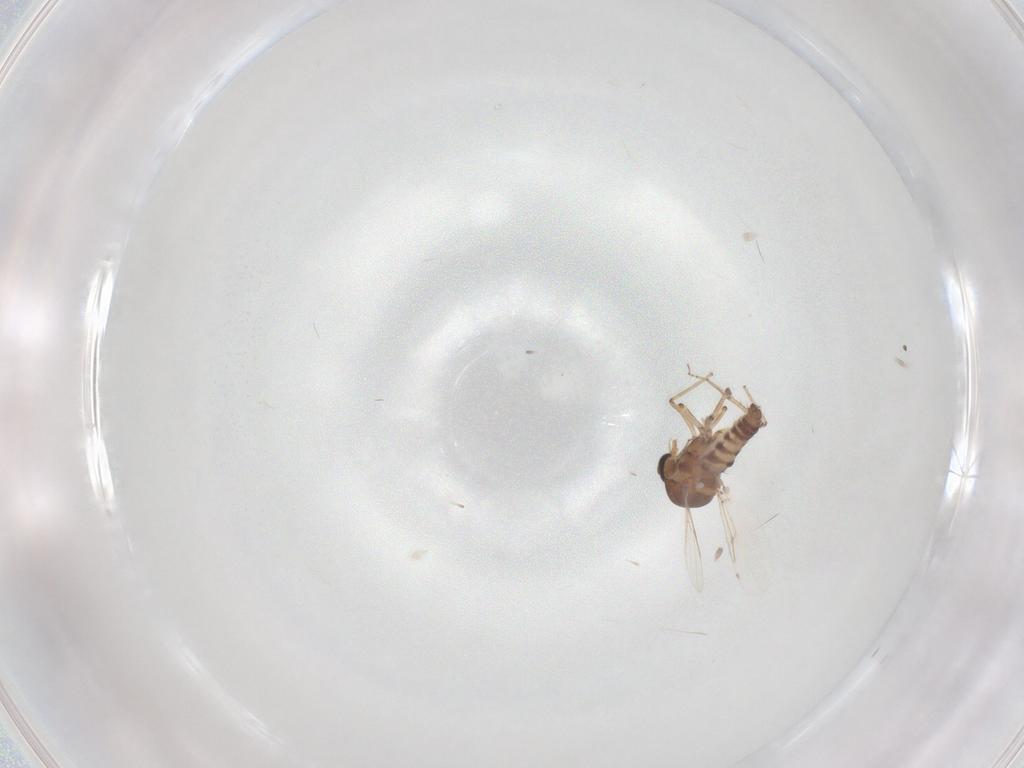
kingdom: Animalia
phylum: Arthropoda
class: Insecta
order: Diptera
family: Ceratopogonidae
